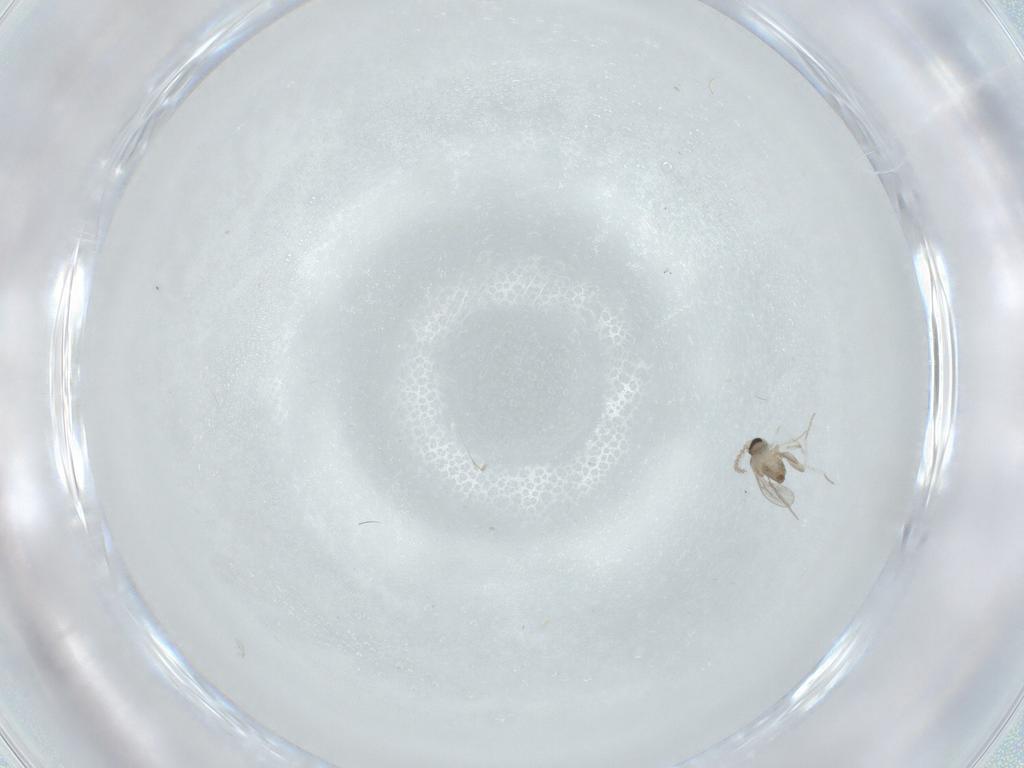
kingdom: Animalia
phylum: Arthropoda
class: Insecta
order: Diptera
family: Cecidomyiidae
